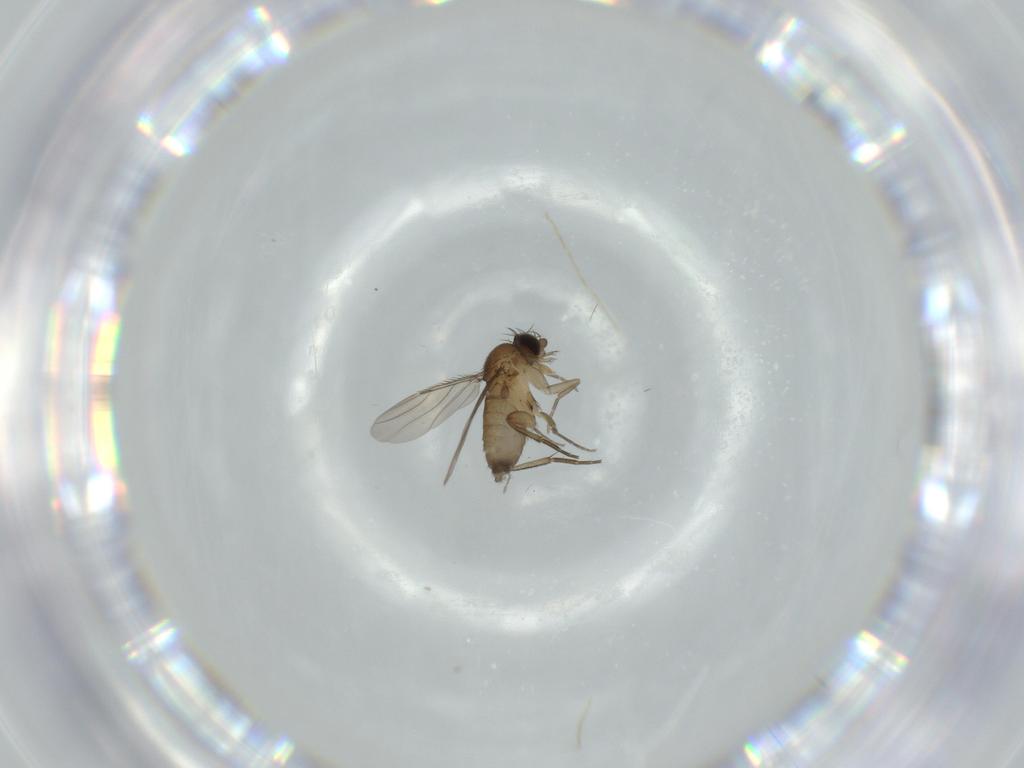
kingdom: Animalia
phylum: Arthropoda
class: Insecta
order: Diptera
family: Phoridae
